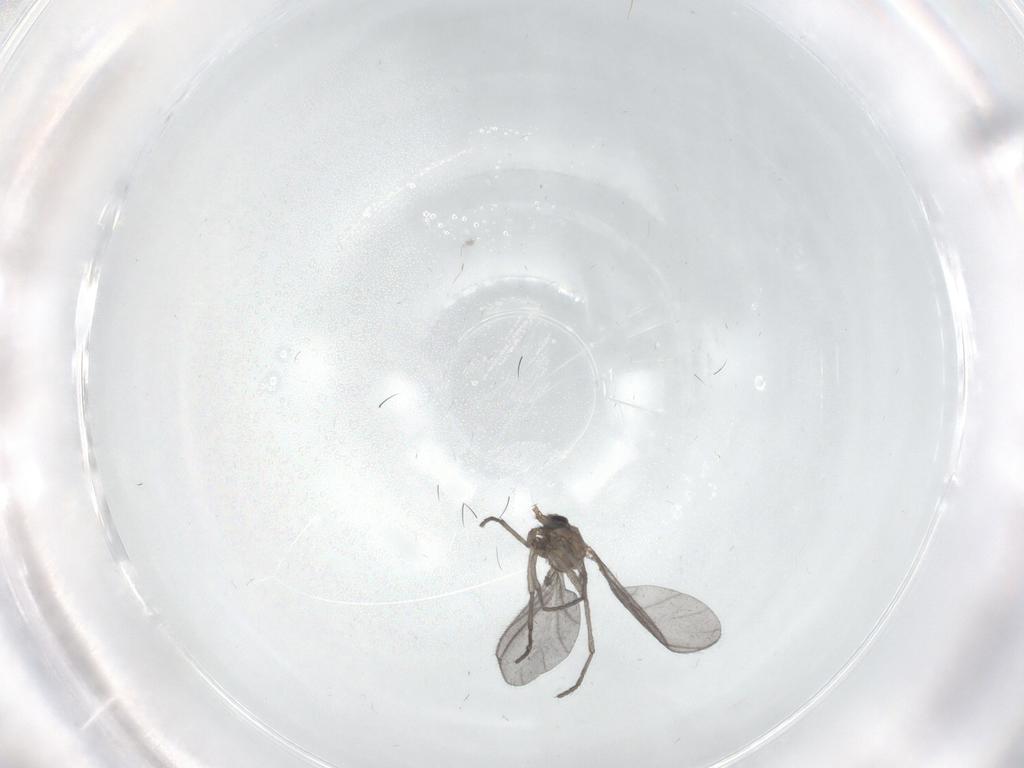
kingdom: Animalia
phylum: Arthropoda
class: Insecta
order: Diptera
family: Sciaridae
